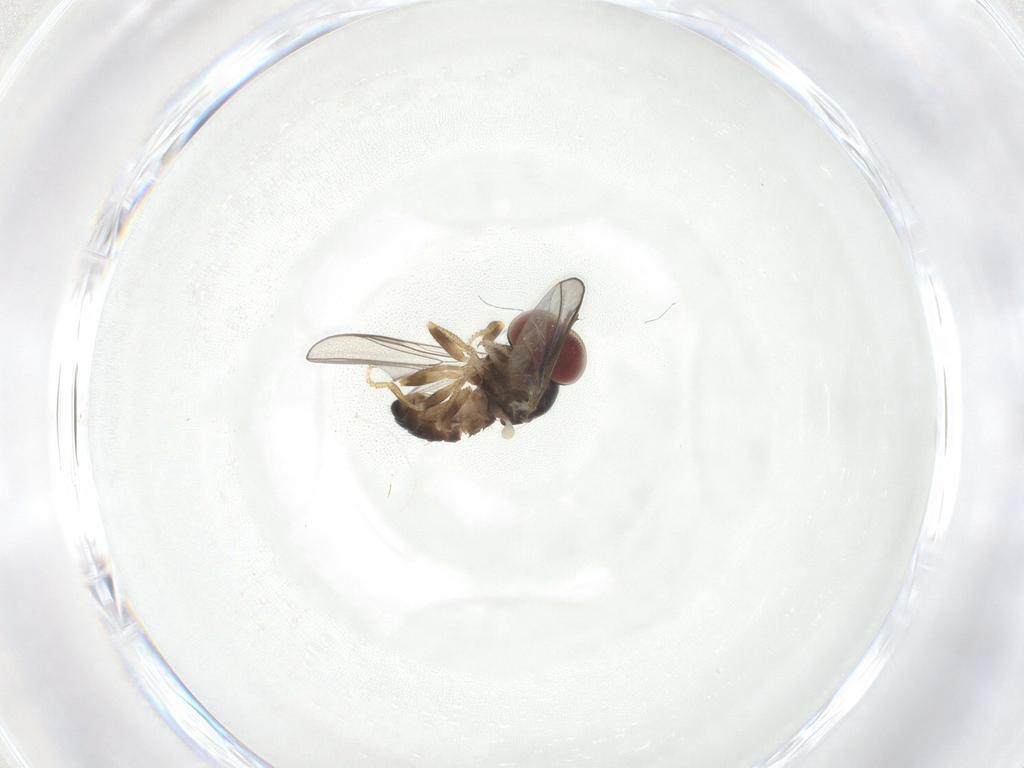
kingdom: Animalia
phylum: Arthropoda
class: Insecta
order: Diptera
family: Pipunculidae
